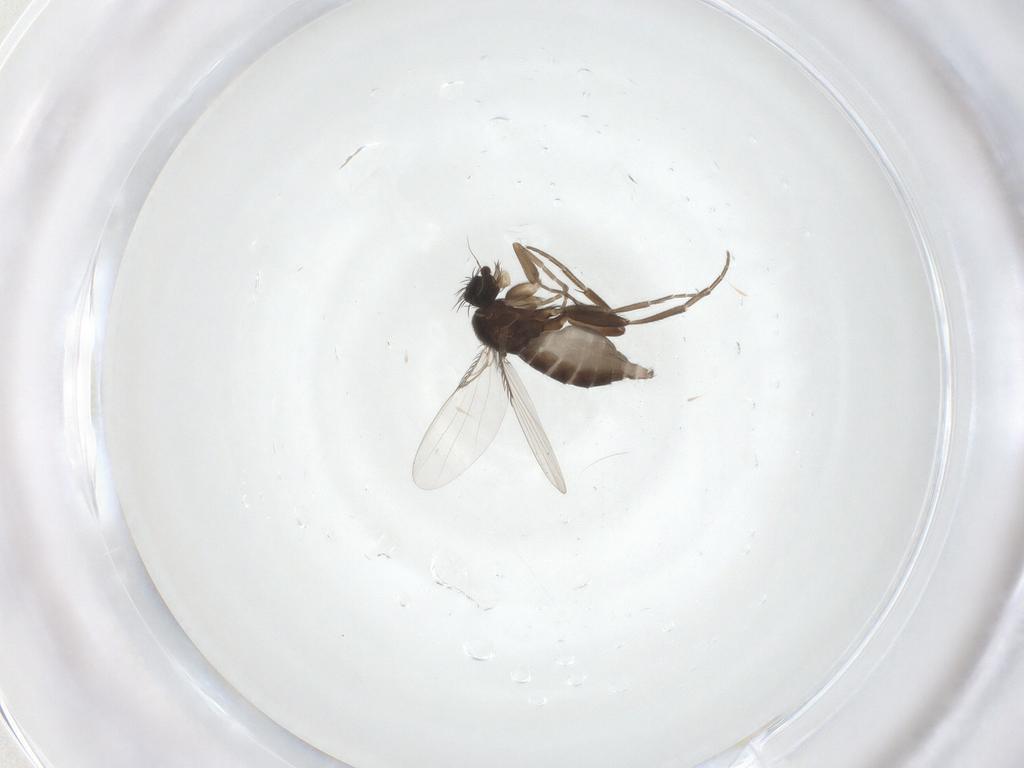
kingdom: Animalia
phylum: Arthropoda
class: Insecta
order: Diptera
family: Phoridae
